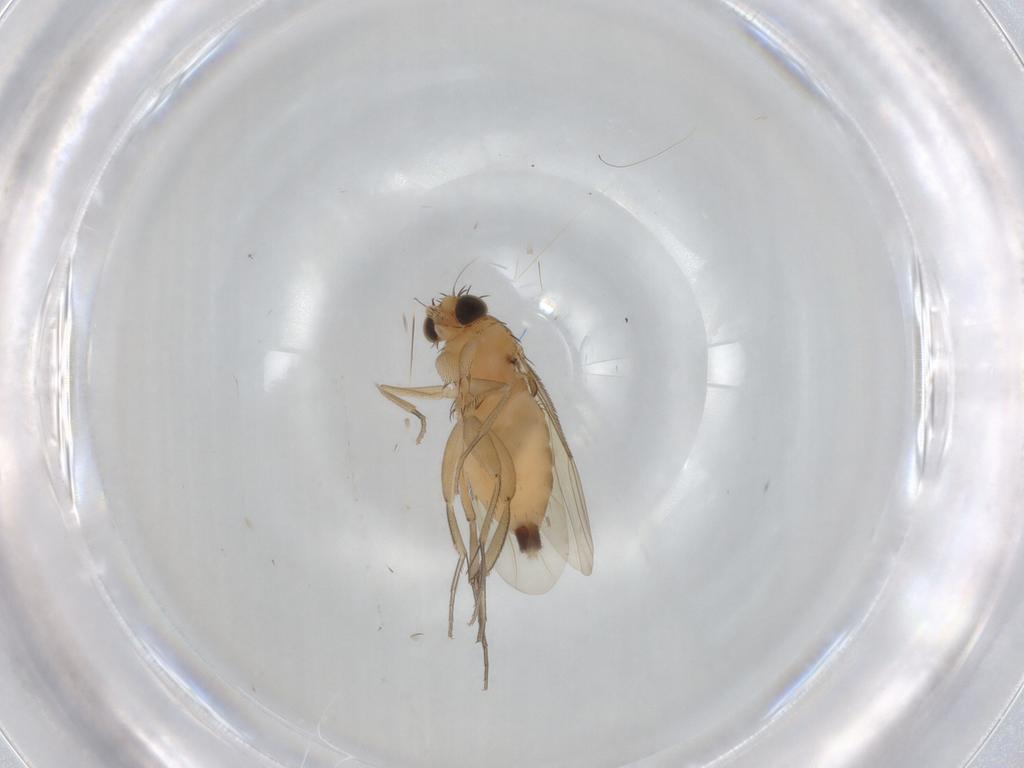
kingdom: Animalia
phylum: Arthropoda
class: Insecta
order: Diptera
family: Phoridae
